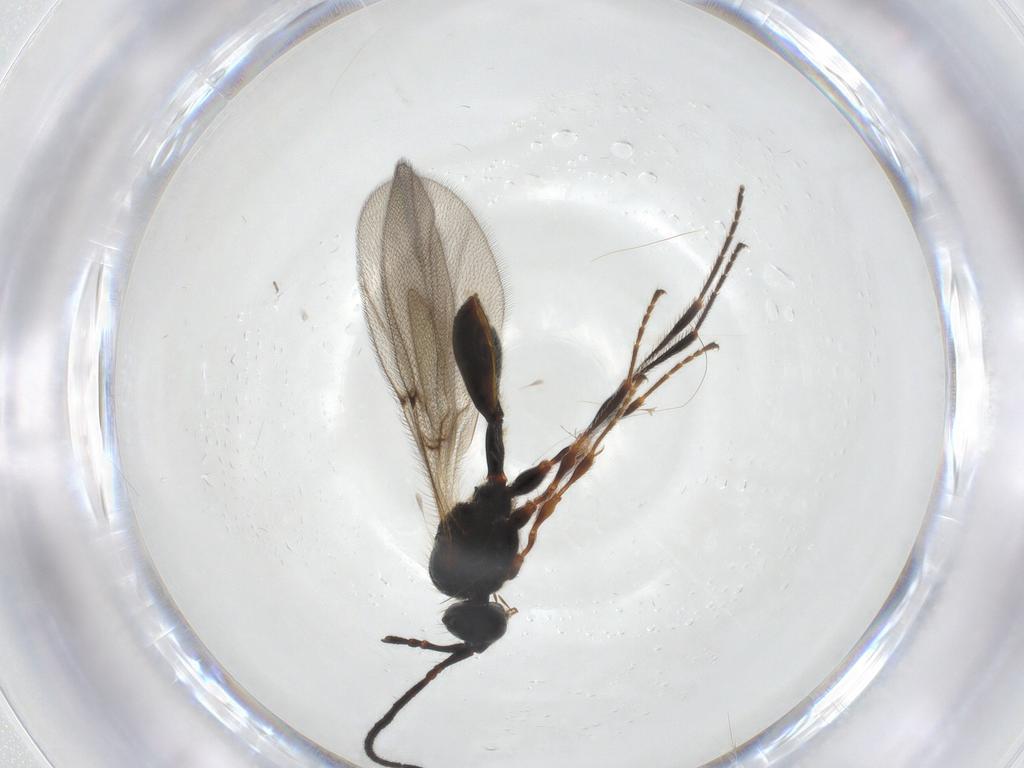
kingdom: Animalia
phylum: Arthropoda
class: Insecta
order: Hymenoptera
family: Diapriidae
